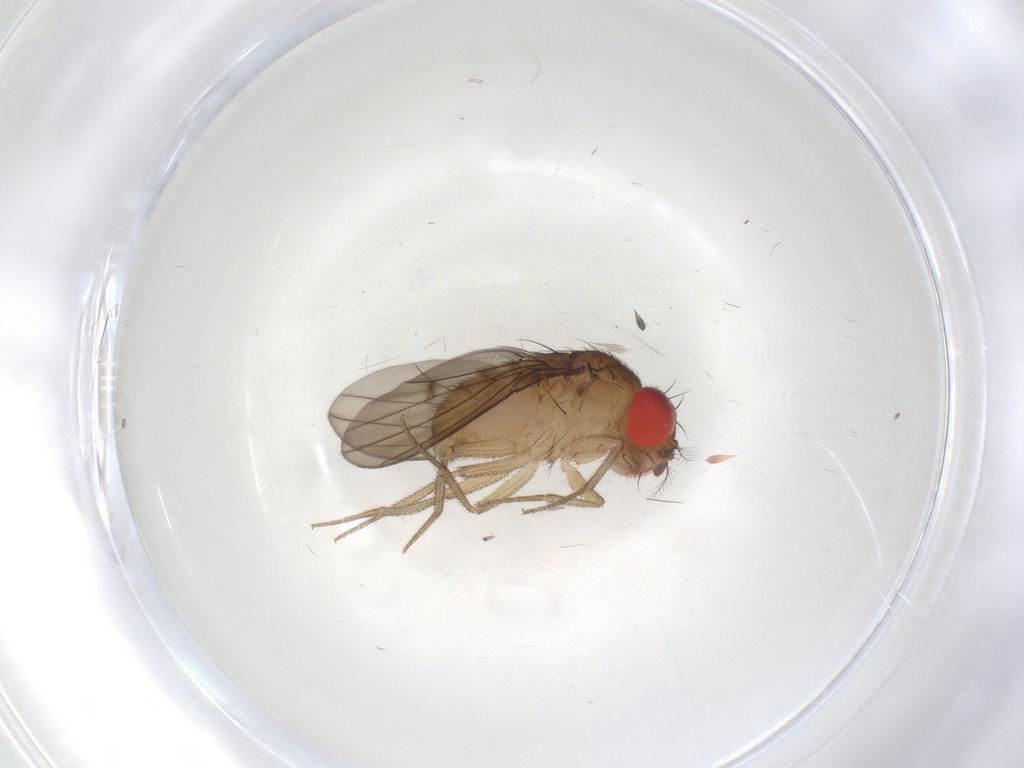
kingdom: Animalia
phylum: Arthropoda
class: Insecta
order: Diptera
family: Drosophilidae
